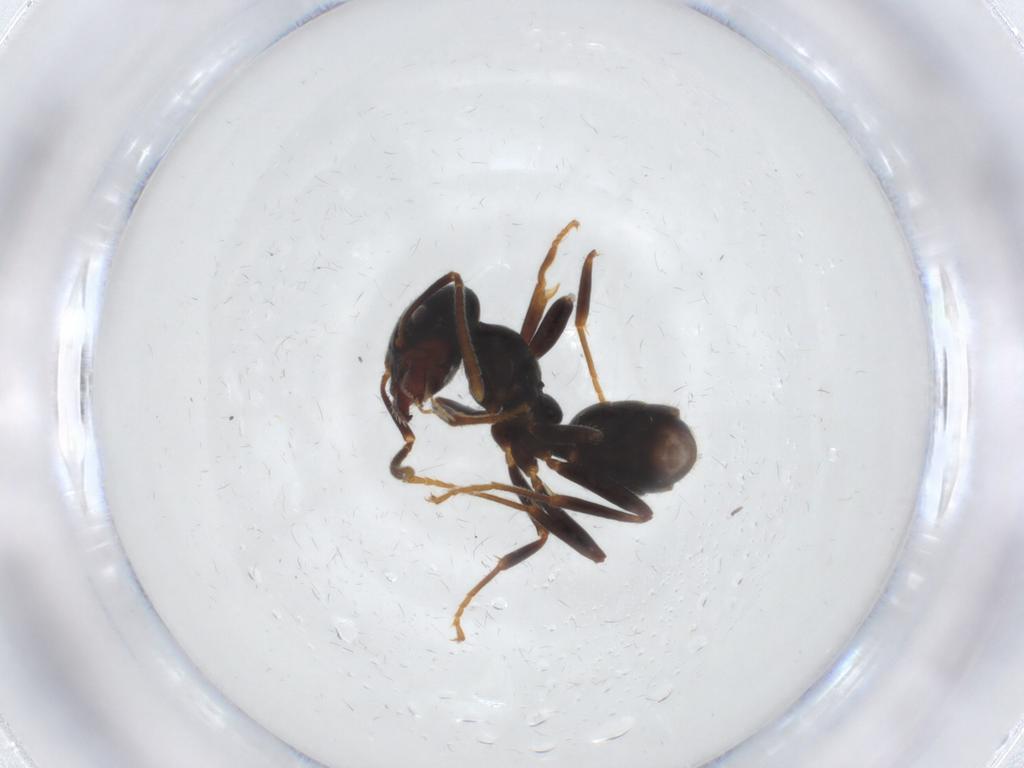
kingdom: Animalia
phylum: Arthropoda
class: Insecta
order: Hymenoptera
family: Formicidae
